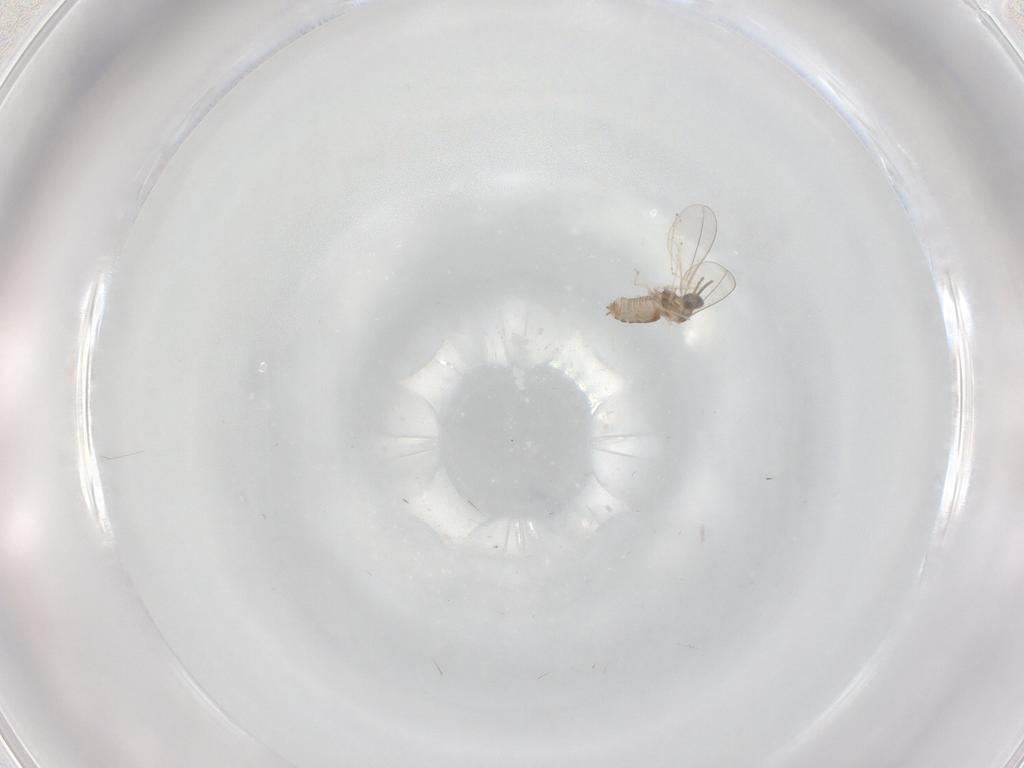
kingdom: Animalia
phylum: Arthropoda
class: Insecta
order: Diptera
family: Cecidomyiidae
